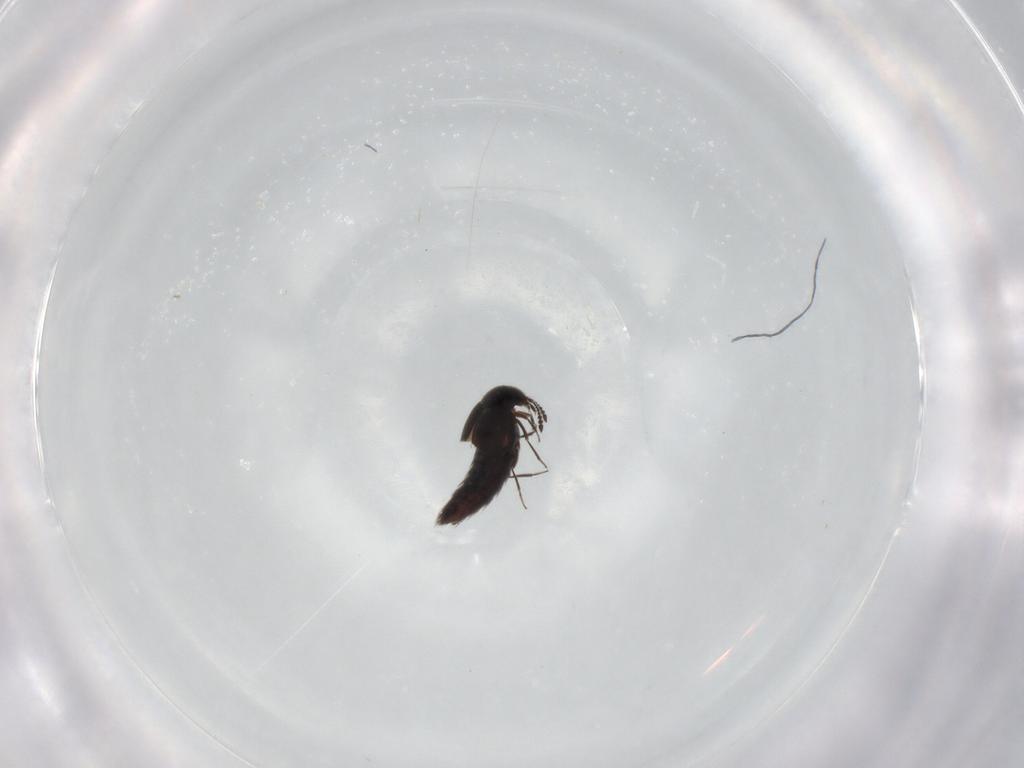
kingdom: Animalia
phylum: Arthropoda
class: Insecta
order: Coleoptera
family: Staphylinidae
